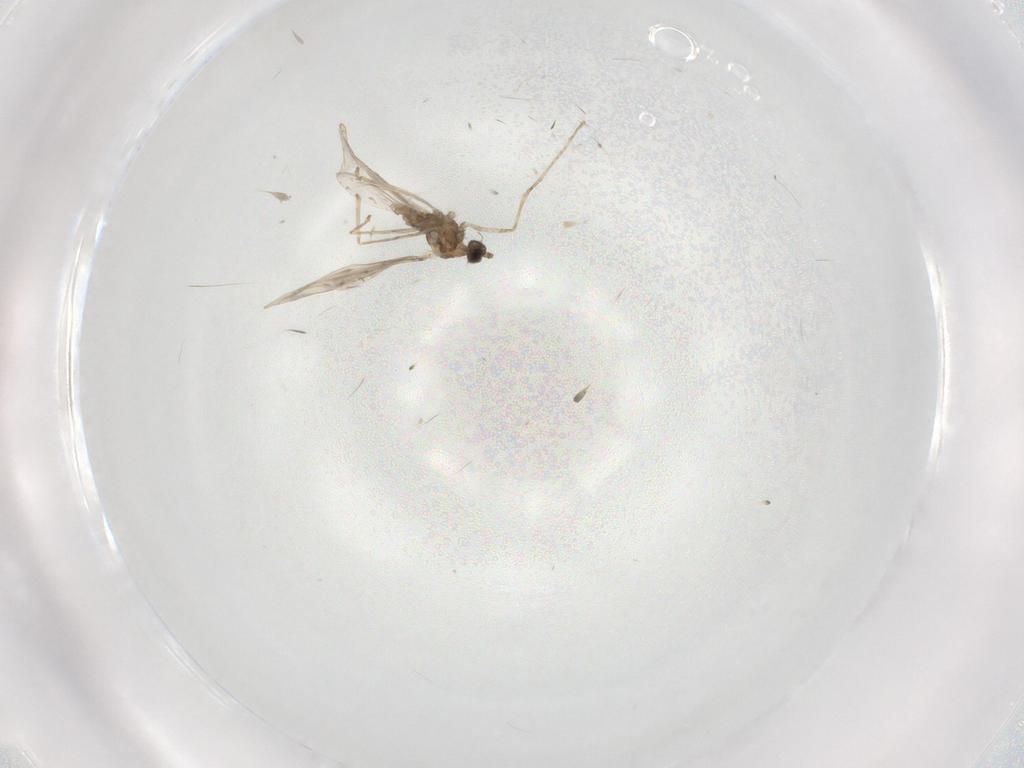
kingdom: Animalia
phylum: Arthropoda
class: Insecta
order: Diptera
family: Cecidomyiidae
